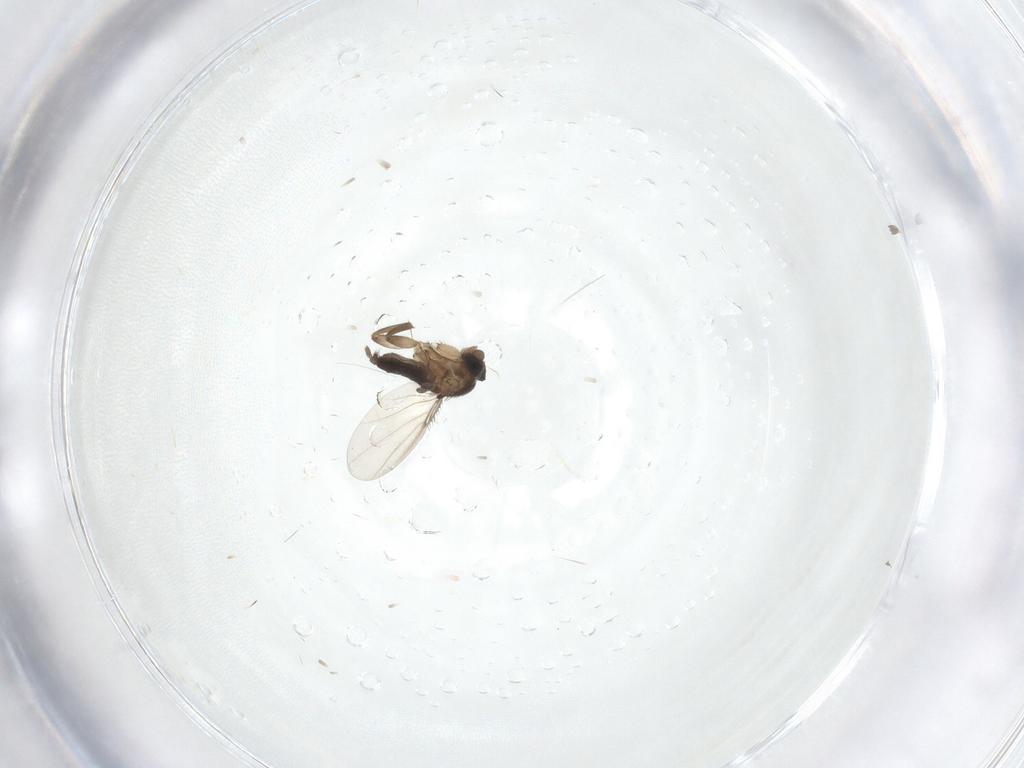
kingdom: Animalia
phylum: Arthropoda
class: Insecta
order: Diptera
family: Phoridae
